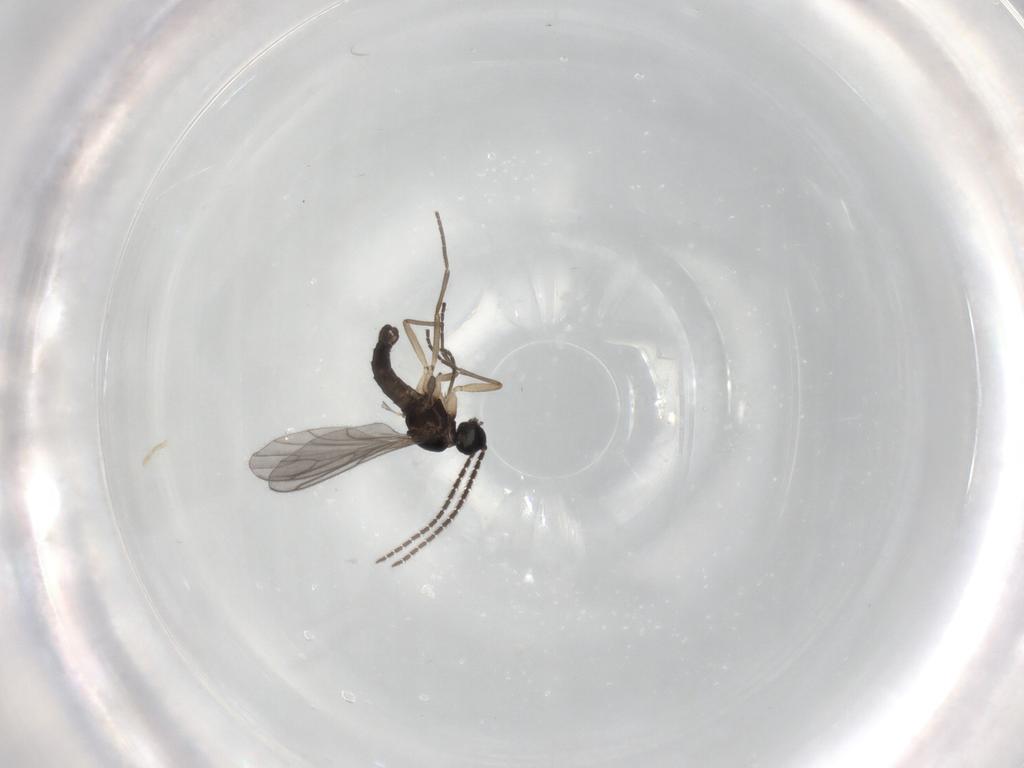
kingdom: Animalia
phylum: Arthropoda
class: Insecta
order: Diptera
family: Sciaridae
